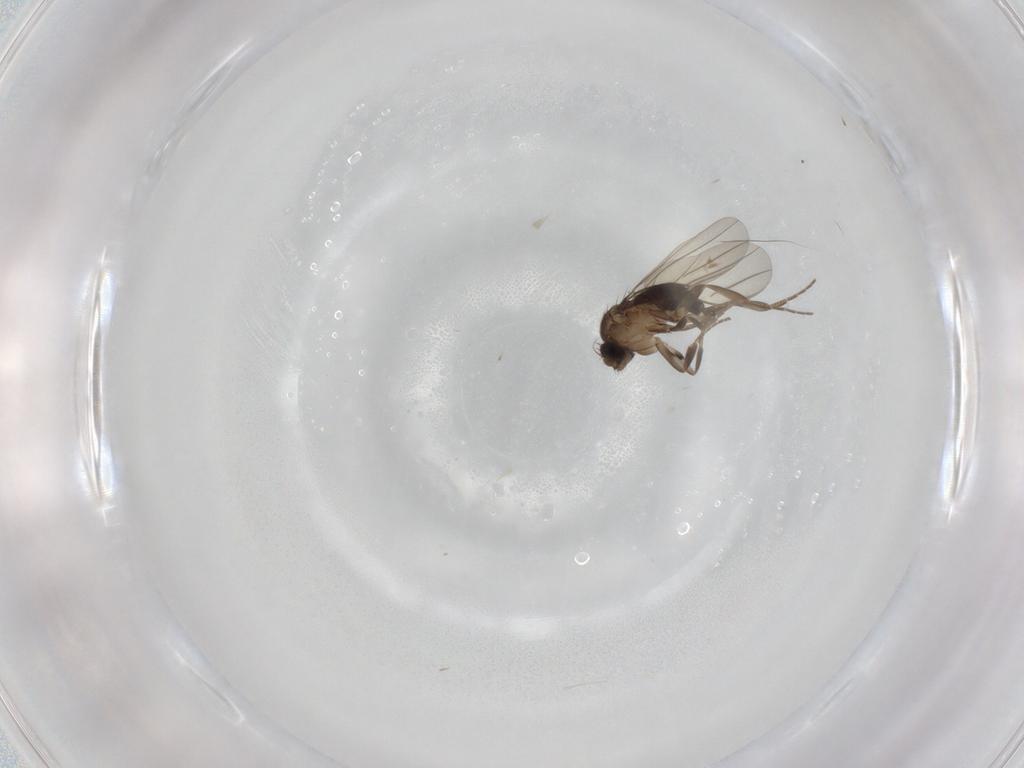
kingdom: Animalia
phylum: Arthropoda
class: Insecta
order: Diptera
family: Phoridae
